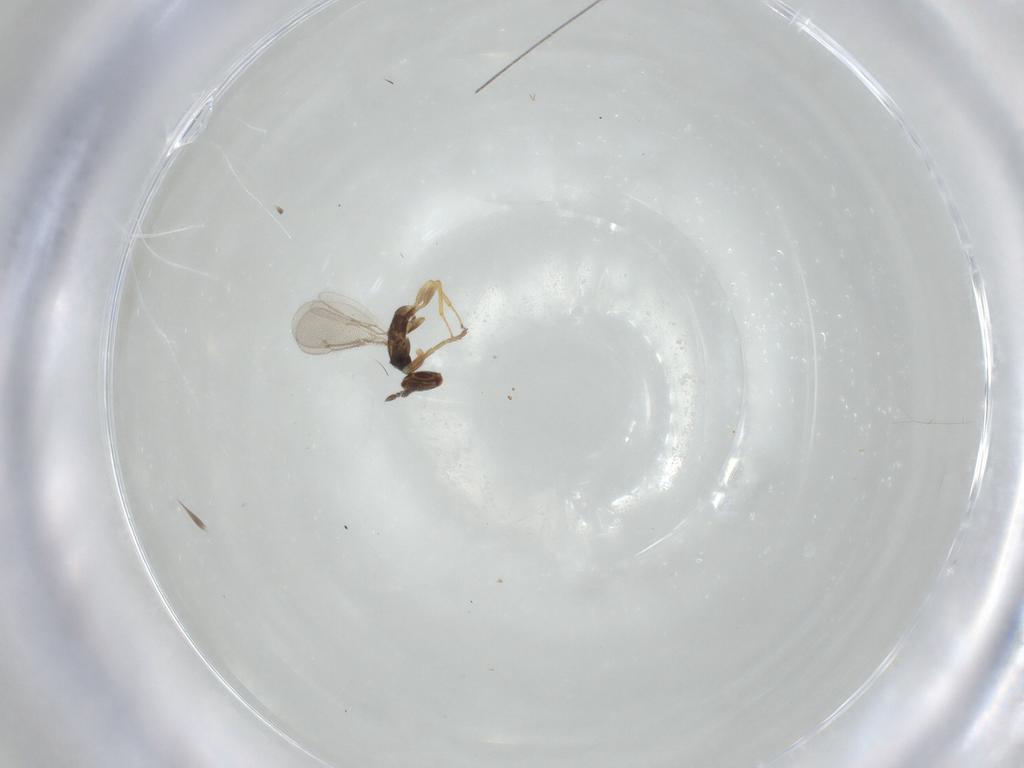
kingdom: Animalia
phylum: Arthropoda
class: Insecta
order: Diptera
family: Chloropidae
